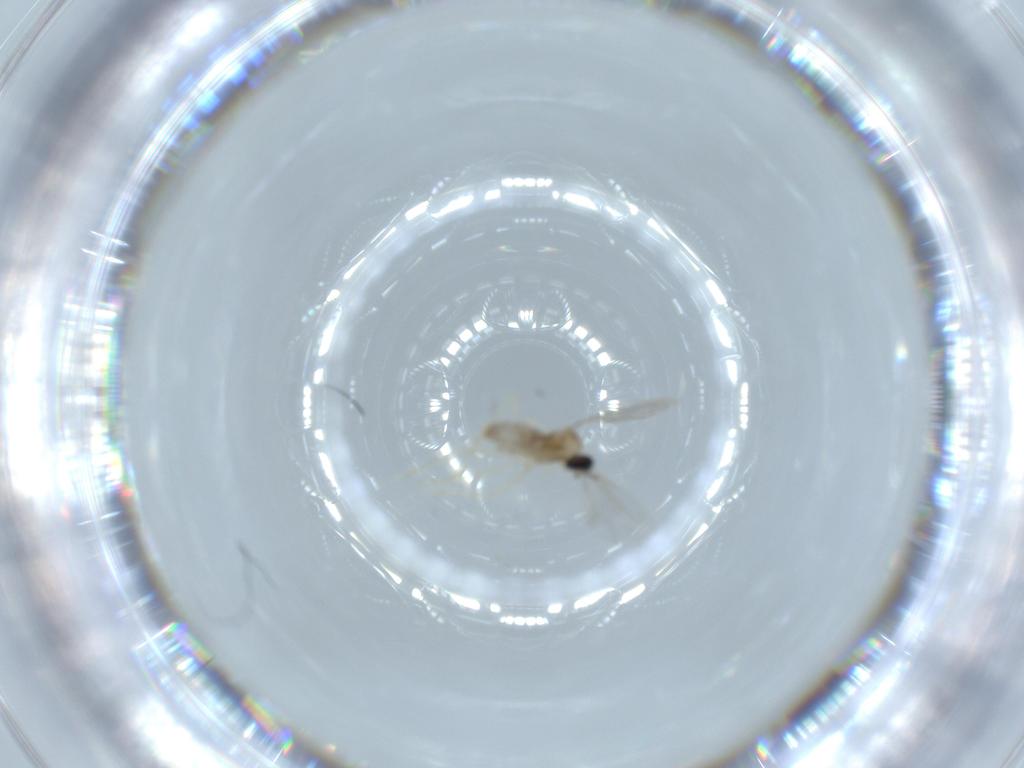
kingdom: Animalia
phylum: Arthropoda
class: Insecta
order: Diptera
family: Cecidomyiidae
